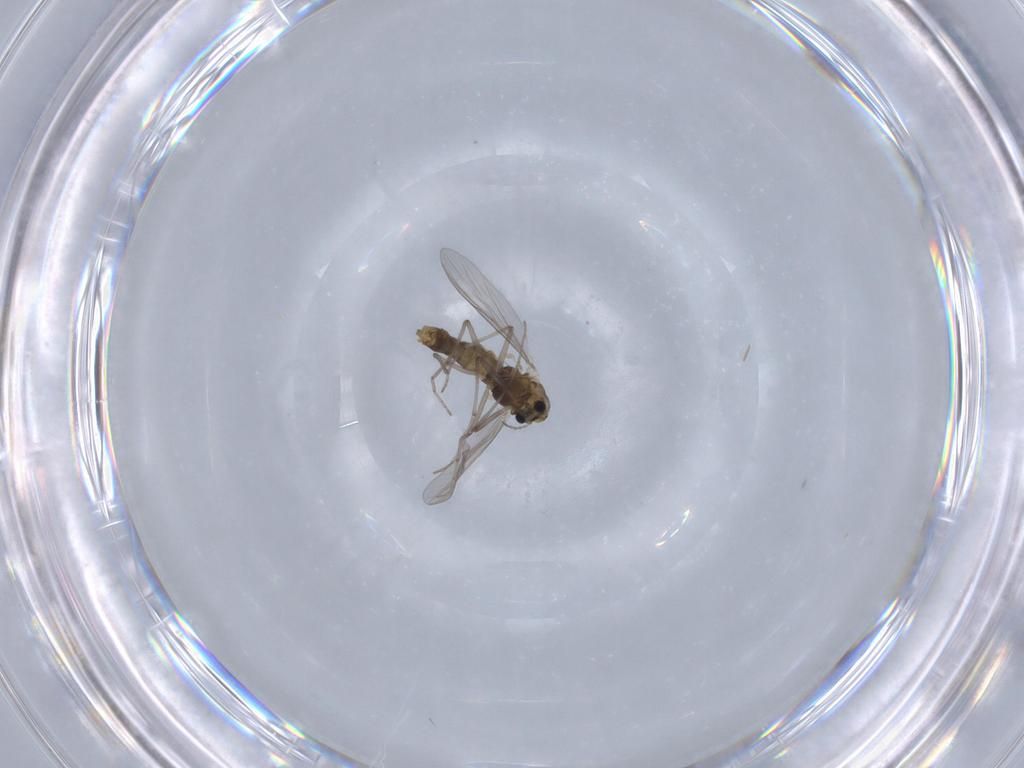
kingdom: Animalia
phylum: Arthropoda
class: Insecta
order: Diptera
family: Chironomidae
